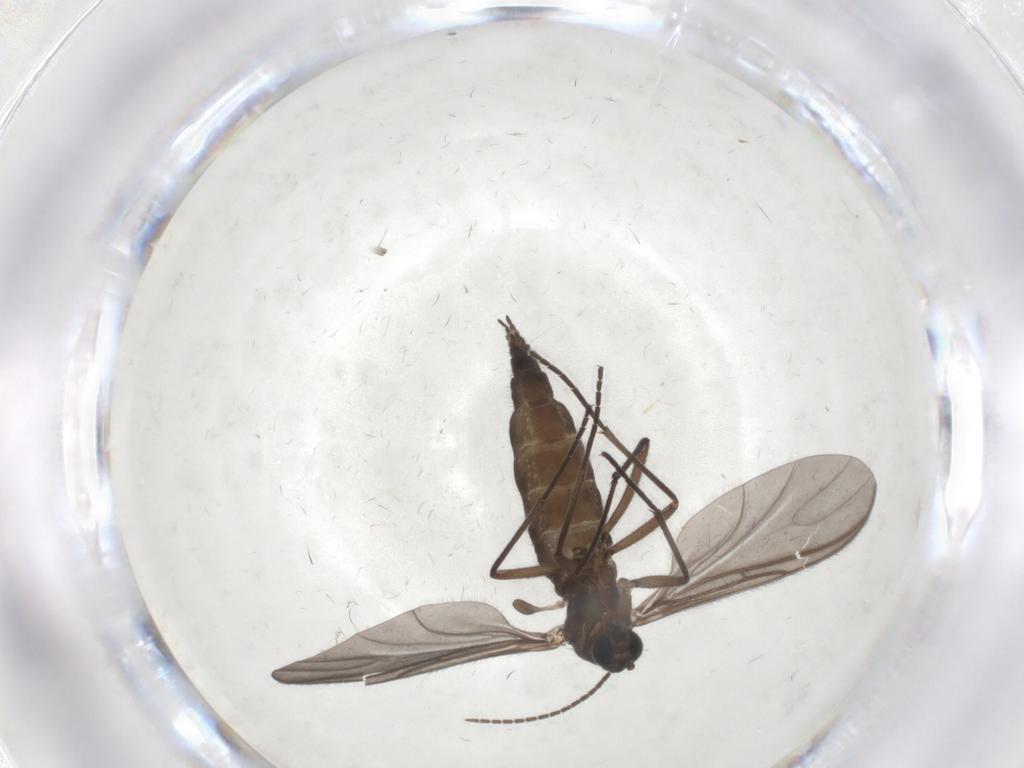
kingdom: Animalia
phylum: Arthropoda
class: Insecta
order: Diptera
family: Sciaridae
